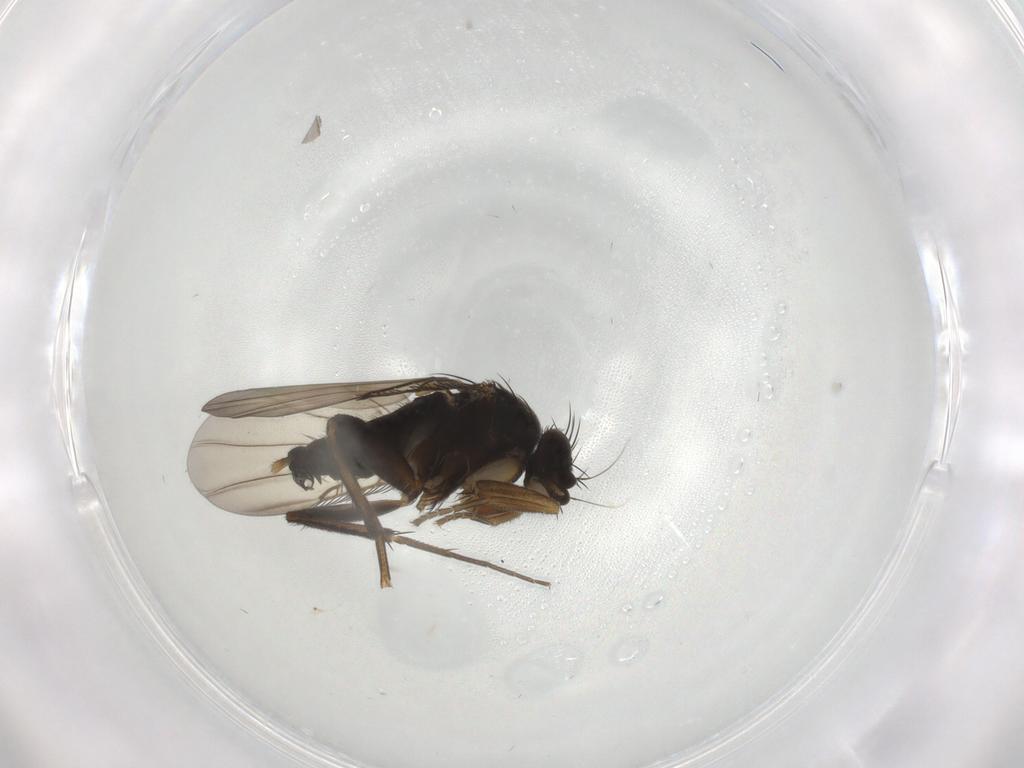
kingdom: Animalia
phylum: Arthropoda
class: Insecta
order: Diptera
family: Phoridae
